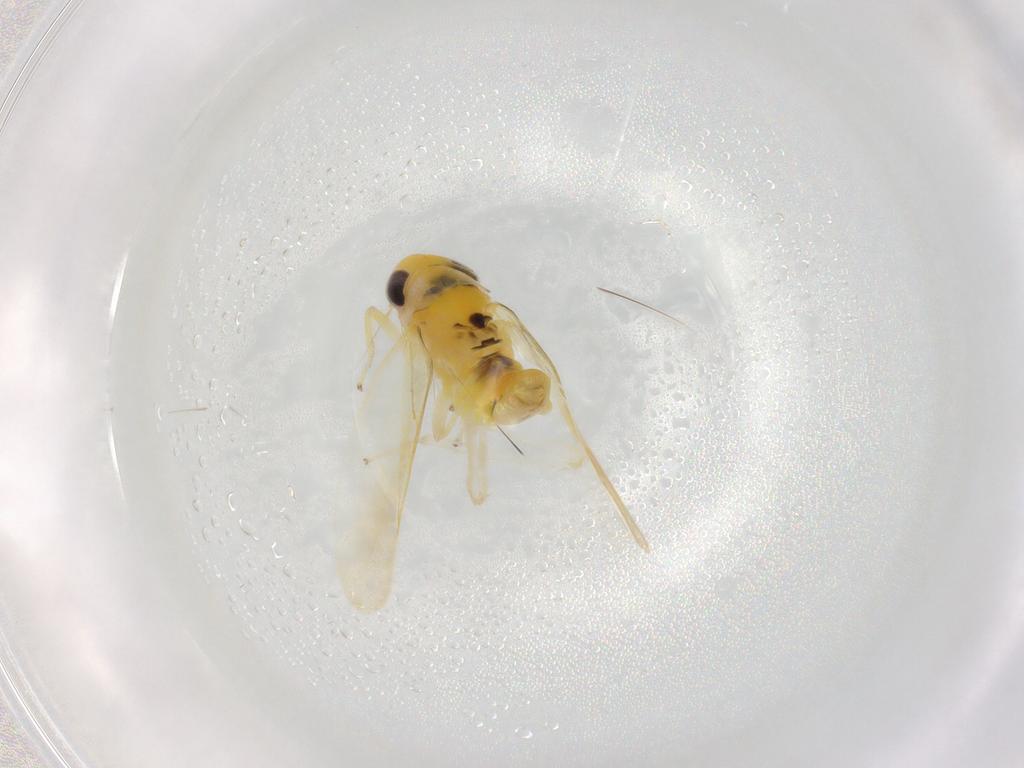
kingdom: Animalia
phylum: Arthropoda
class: Insecta
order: Hemiptera
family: Cicadellidae
